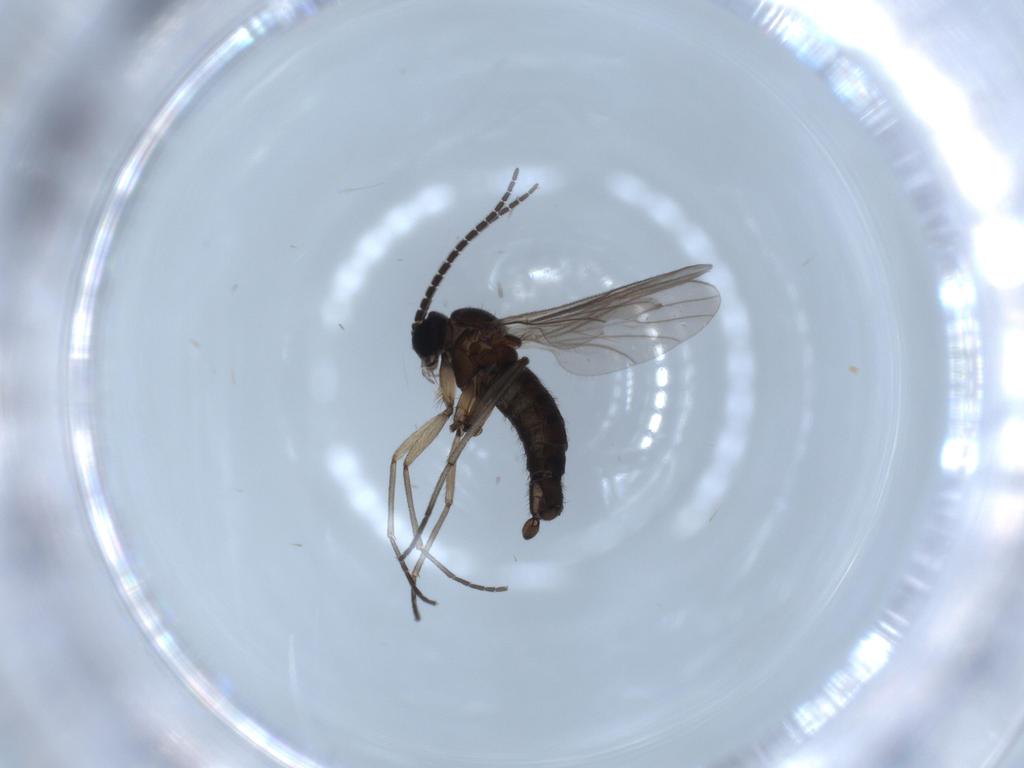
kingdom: Animalia
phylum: Arthropoda
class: Insecta
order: Diptera
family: Sciaridae
